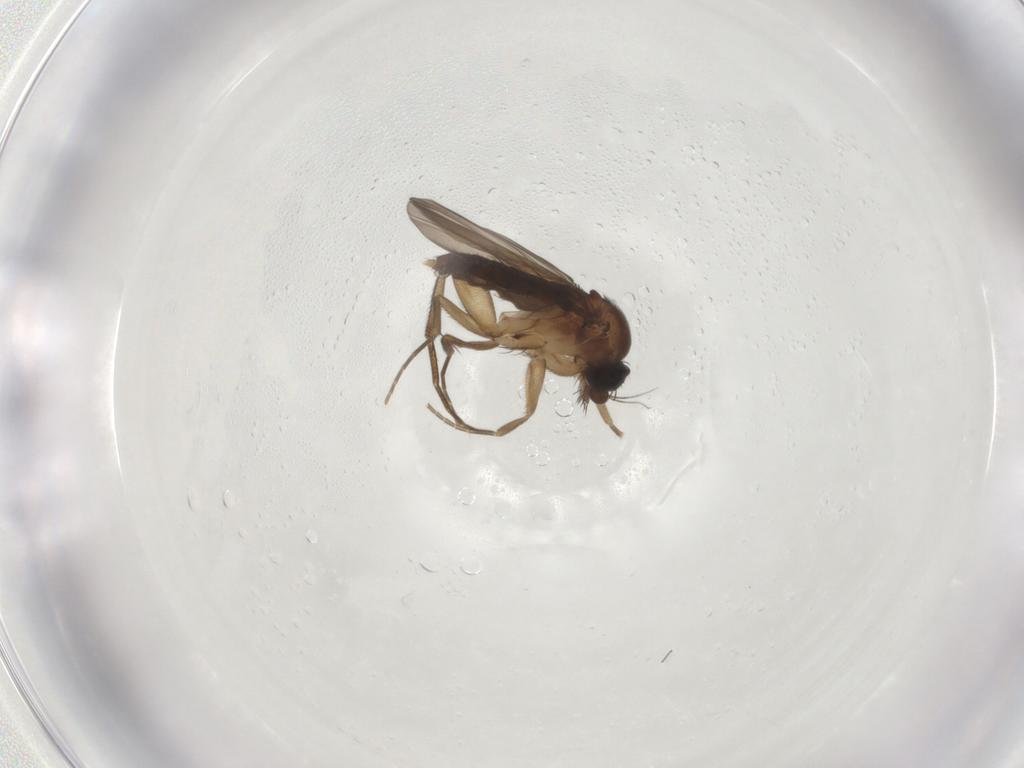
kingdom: Animalia
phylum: Arthropoda
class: Insecta
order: Diptera
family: Phoridae
